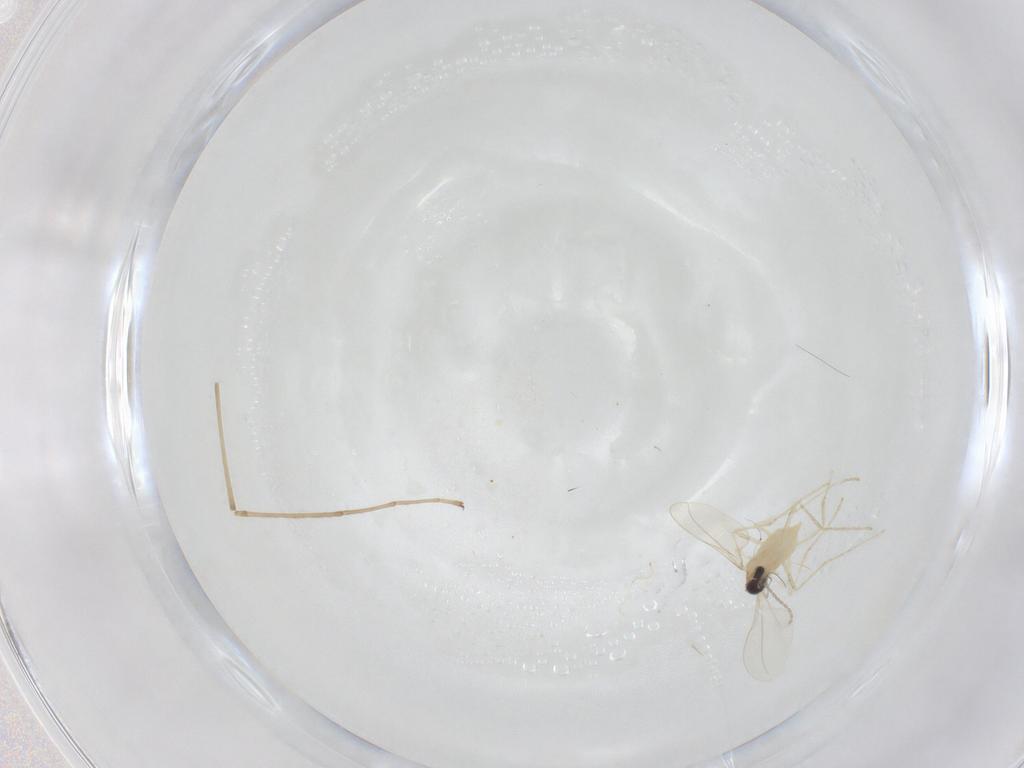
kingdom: Animalia
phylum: Arthropoda
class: Insecta
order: Diptera
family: Cecidomyiidae
